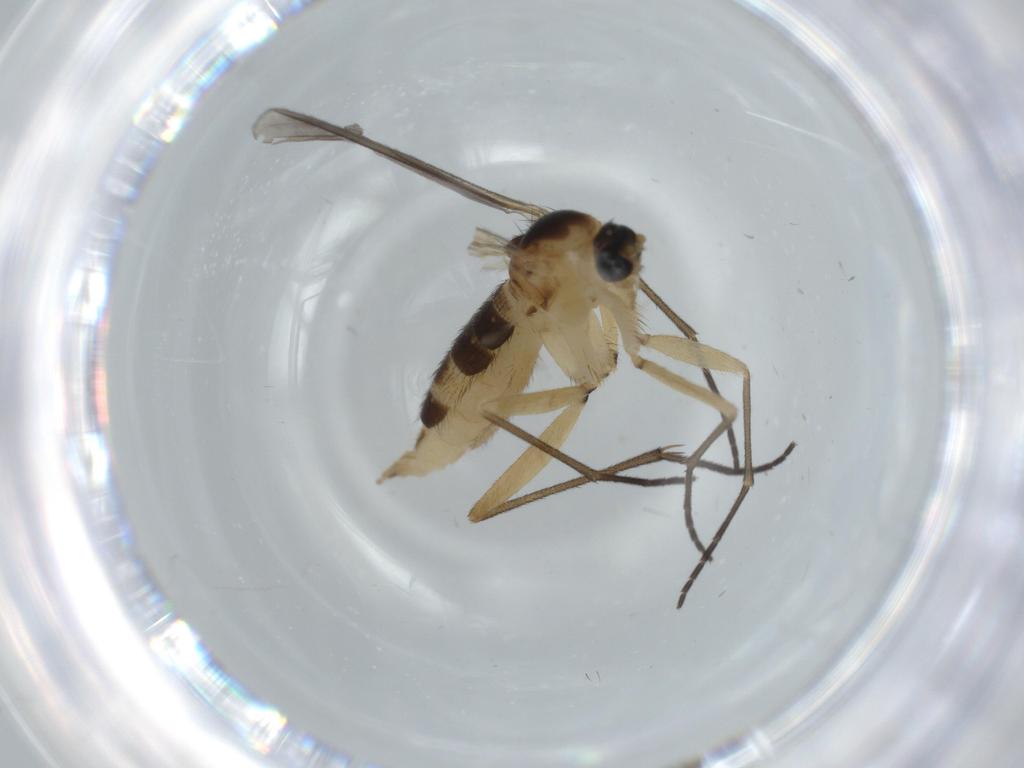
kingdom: Animalia
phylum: Arthropoda
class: Insecta
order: Diptera
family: Sciaridae
